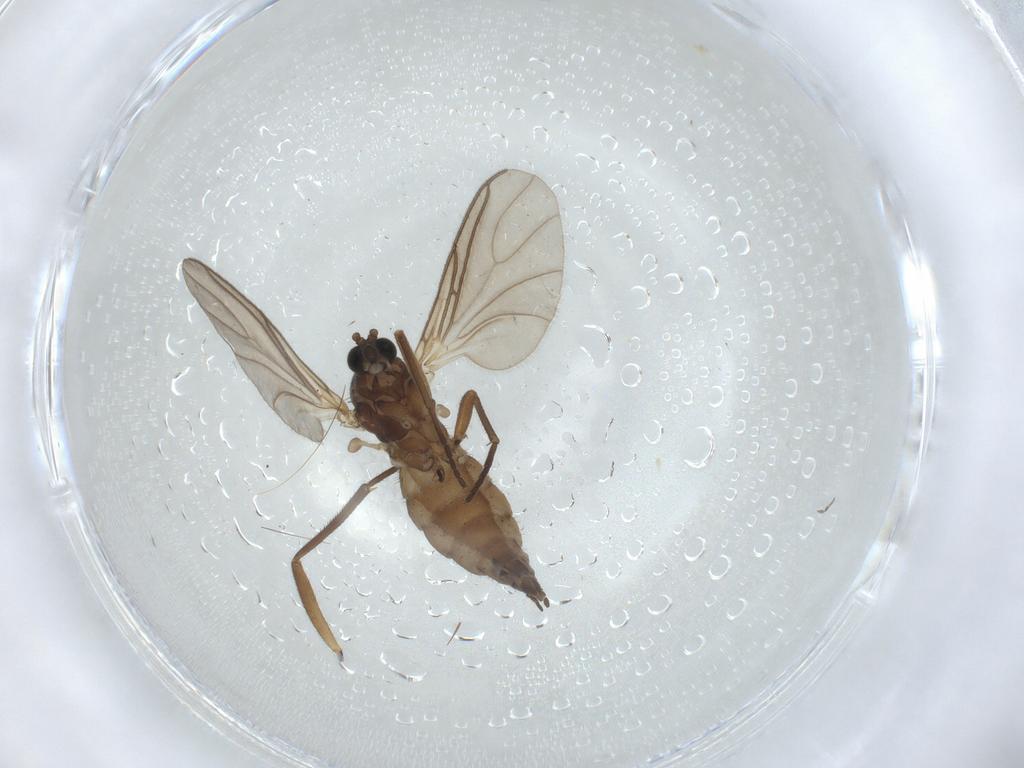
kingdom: Animalia
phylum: Arthropoda
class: Insecta
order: Diptera
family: Sciaridae
